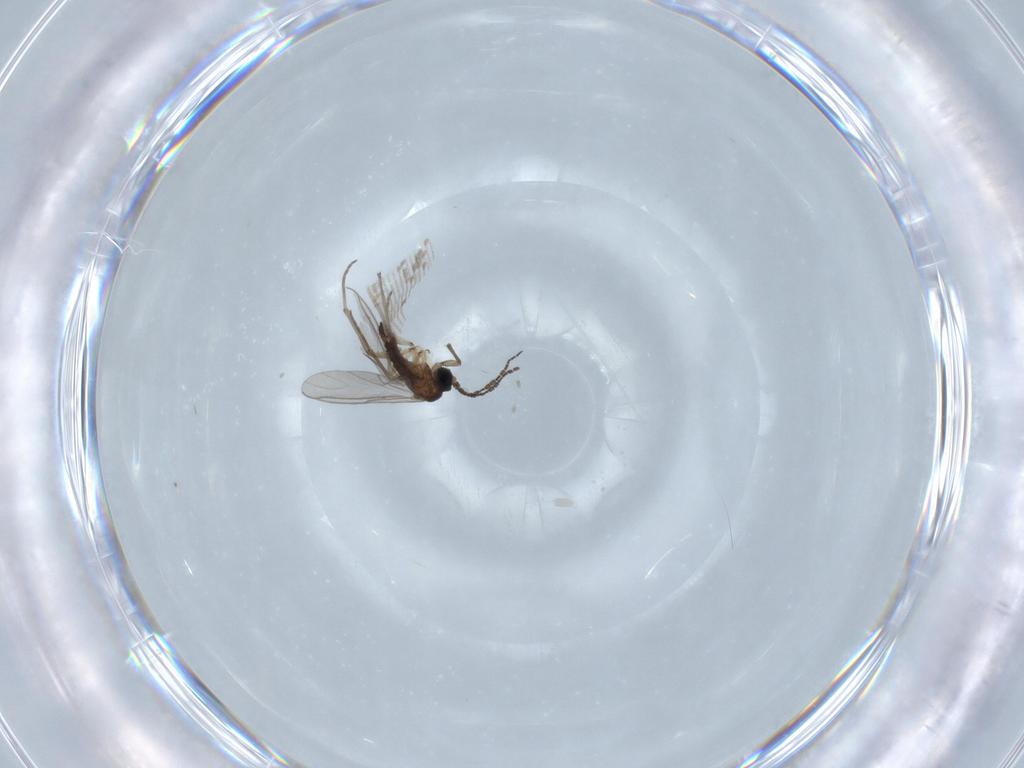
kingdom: Animalia
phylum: Arthropoda
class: Insecta
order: Diptera
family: Sciaridae
